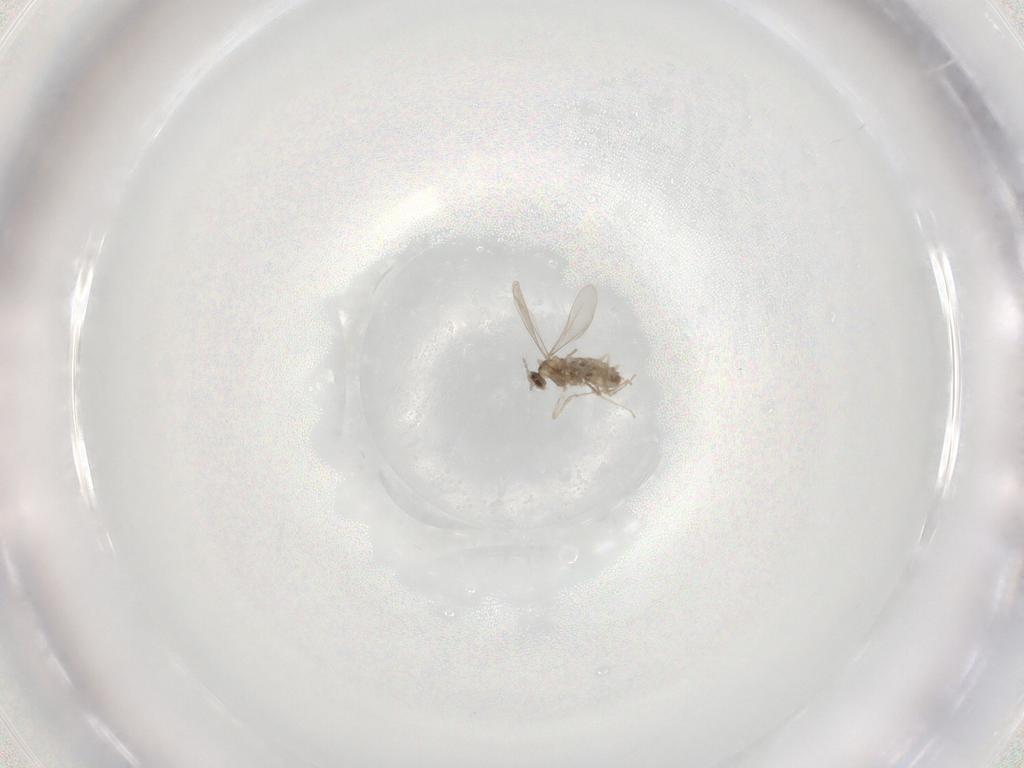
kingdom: Animalia
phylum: Arthropoda
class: Insecta
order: Diptera
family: Cecidomyiidae
